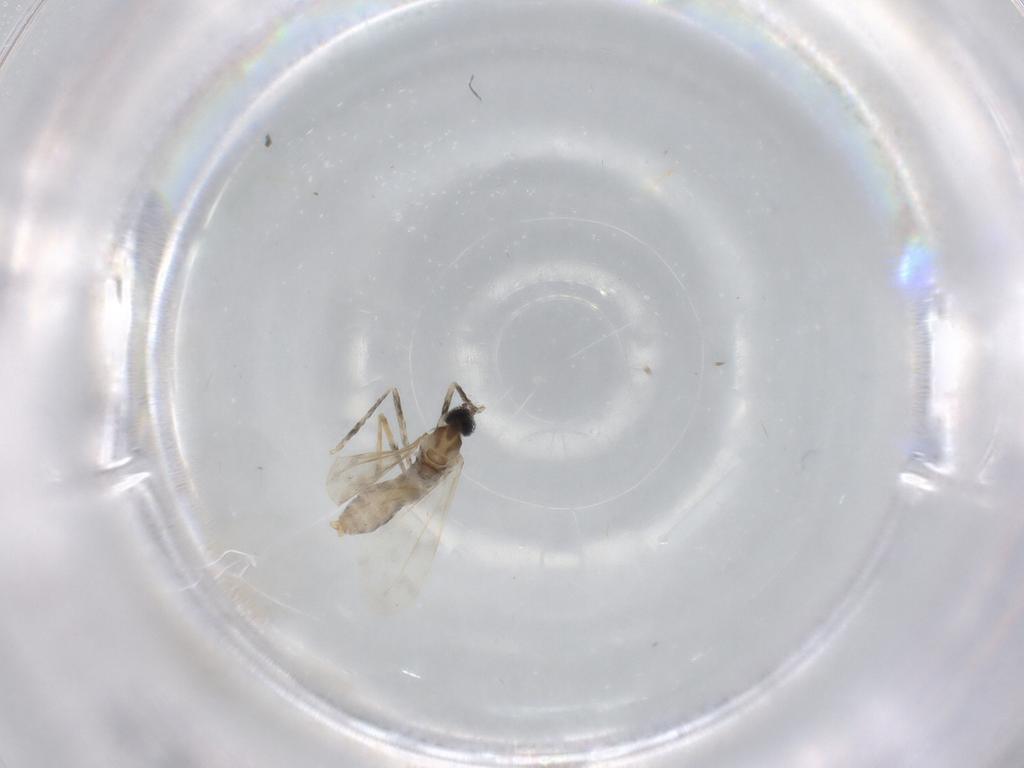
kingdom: Animalia
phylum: Arthropoda
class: Insecta
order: Diptera
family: Cecidomyiidae
